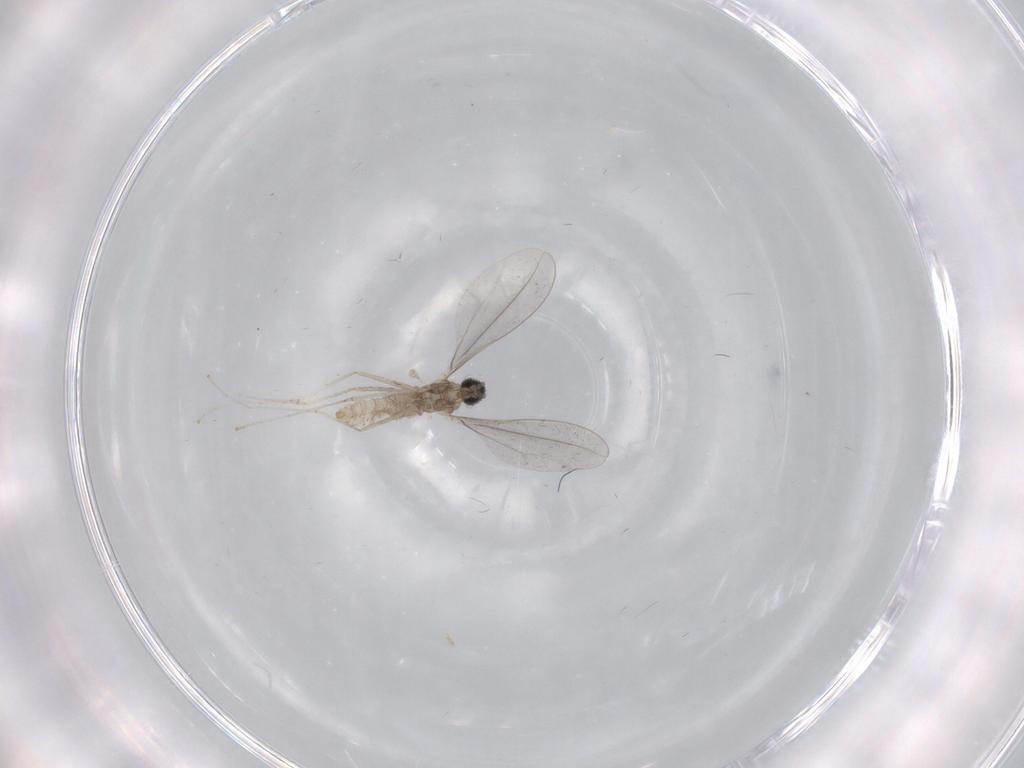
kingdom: Animalia
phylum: Arthropoda
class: Insecta
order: Diptera
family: Cecidomyiidae
